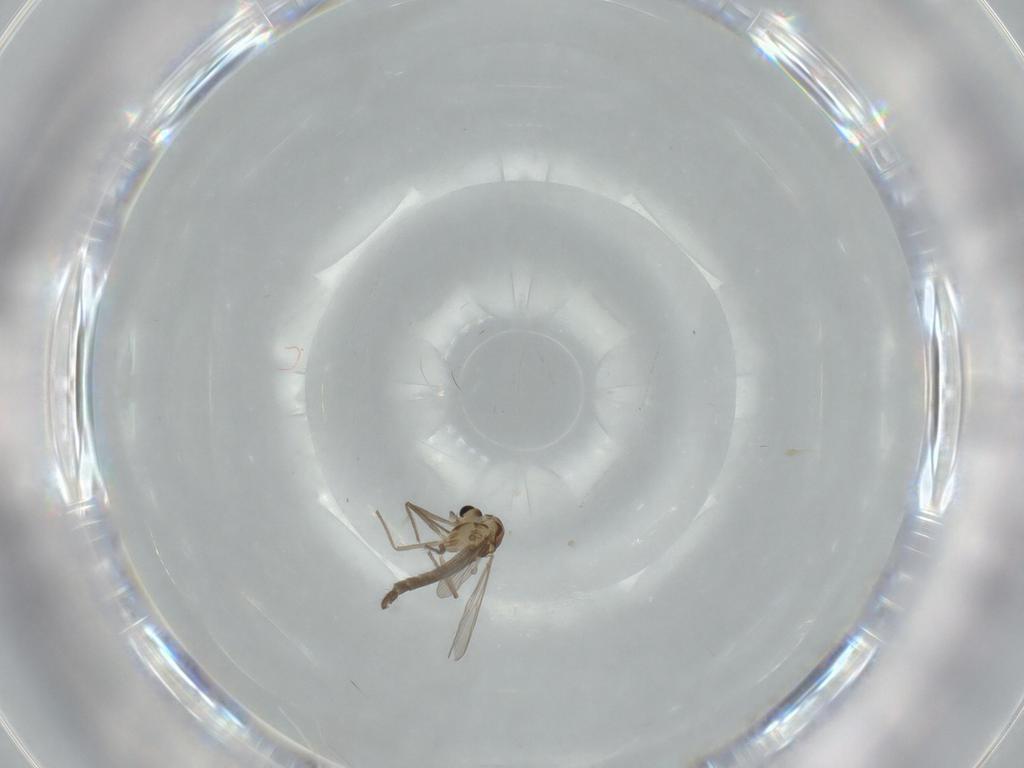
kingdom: Animalia
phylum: Arthropoda
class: Insecta
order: Diptera
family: Chironomidae
